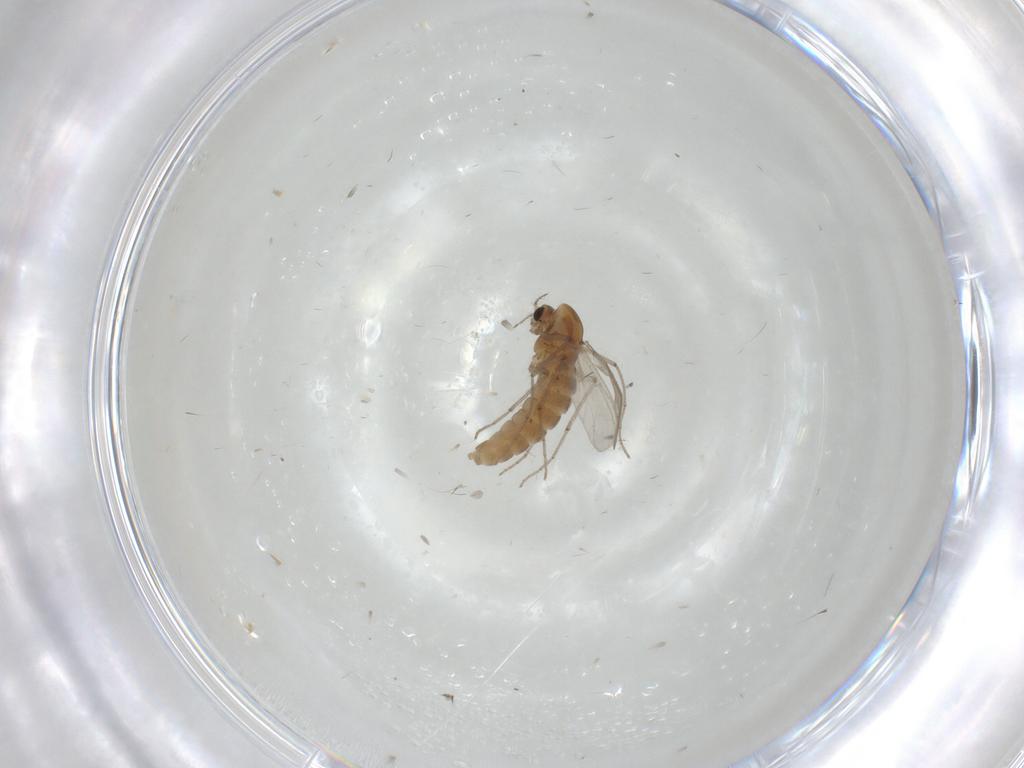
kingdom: Animalia
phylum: Arthropoda
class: Insecta
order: Diptera
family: Chironomidae
